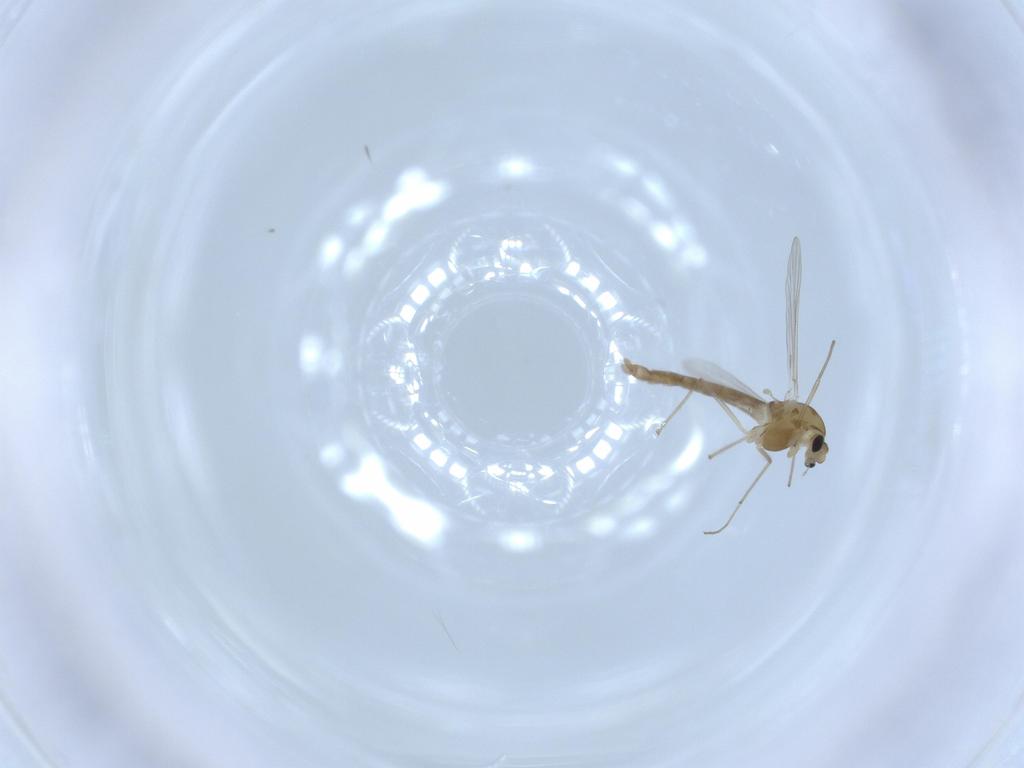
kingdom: Animalia
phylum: Arthropoda
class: Insecta
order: Diptera
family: Chironomidae
